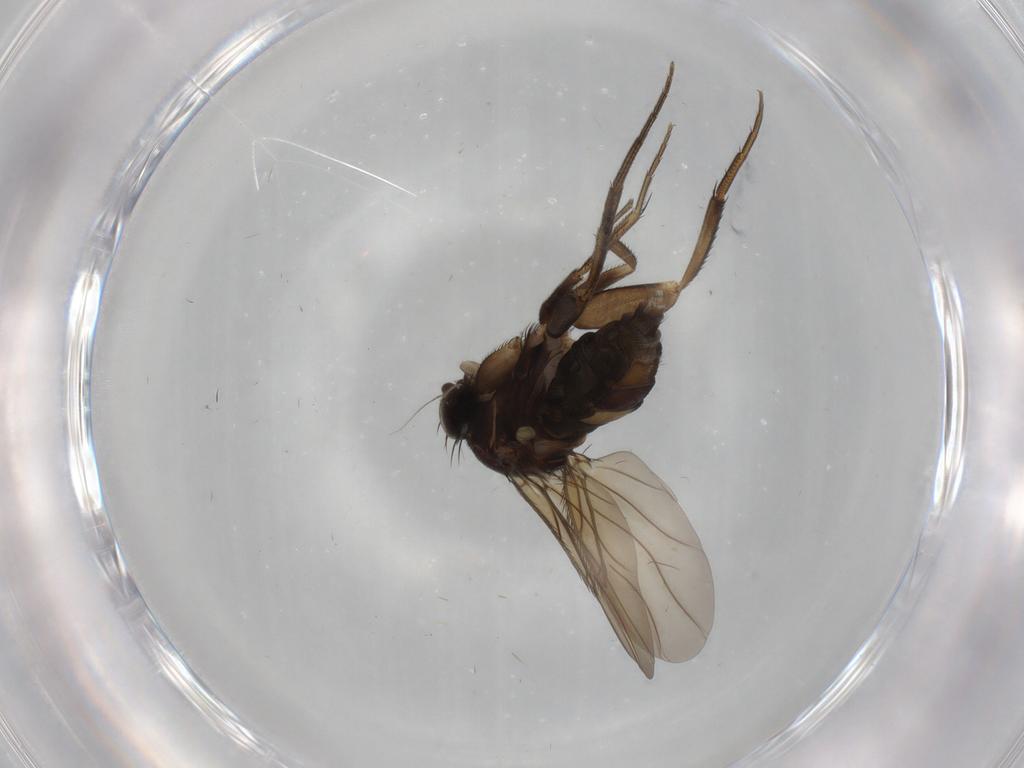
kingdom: Animalia
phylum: Arthropoda
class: Insecta
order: Diptera
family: Phoridae
